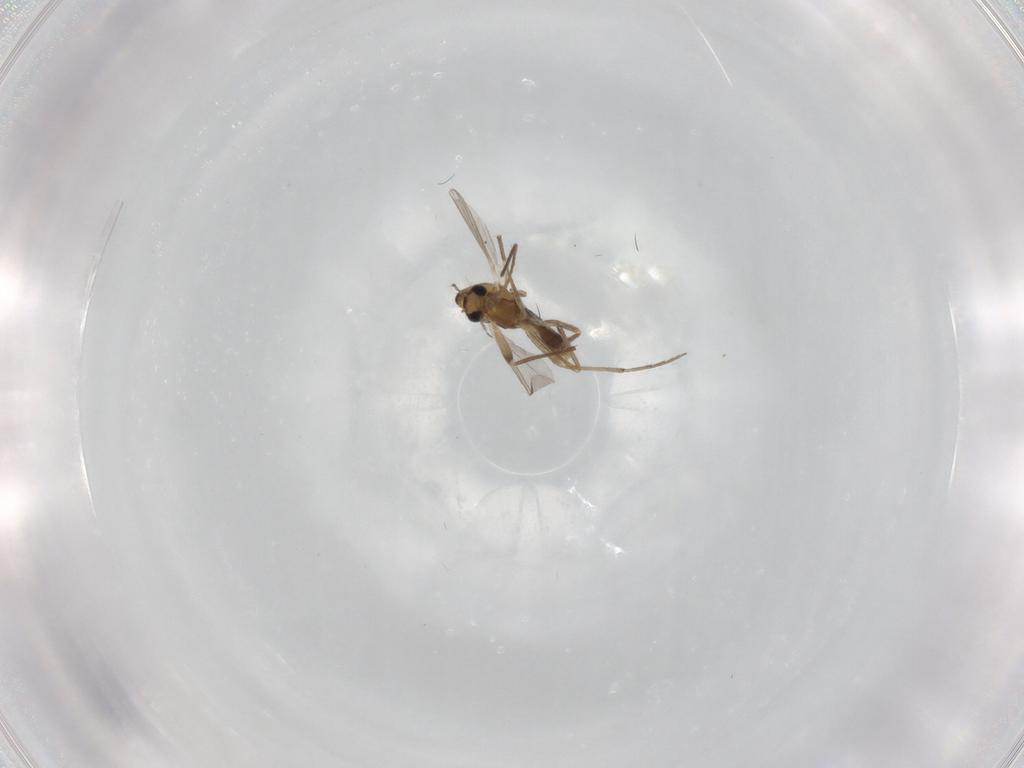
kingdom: Animalia
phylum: Arthropoda
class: Insecta
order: Diptera
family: Chironomidae
